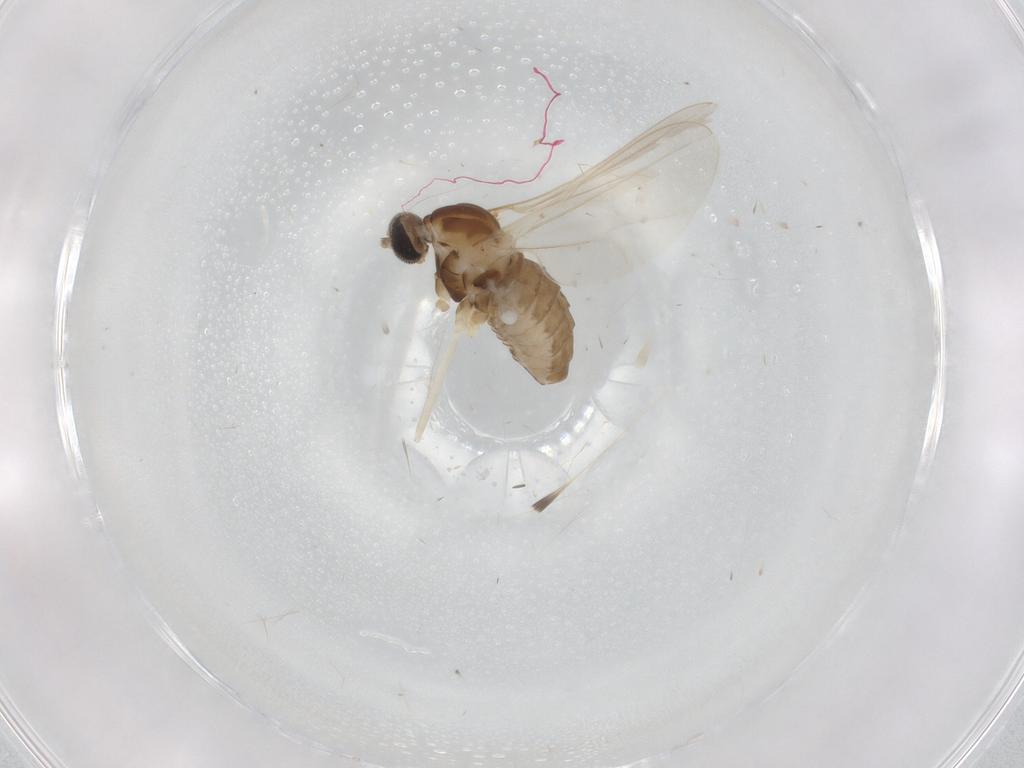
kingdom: Animalia
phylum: Arthropoda
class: Insecta
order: Diptera
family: Cecidomyiidae
